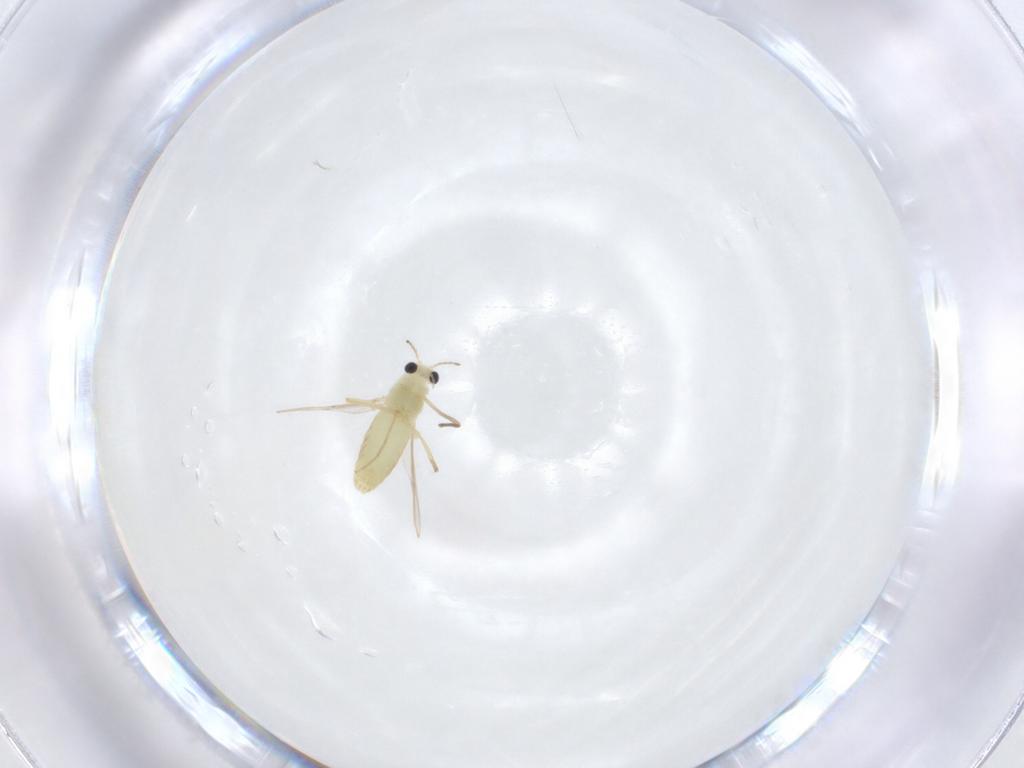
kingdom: Animalia
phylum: Arthropoda
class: Insecta
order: Diptera
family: Chironomidae
